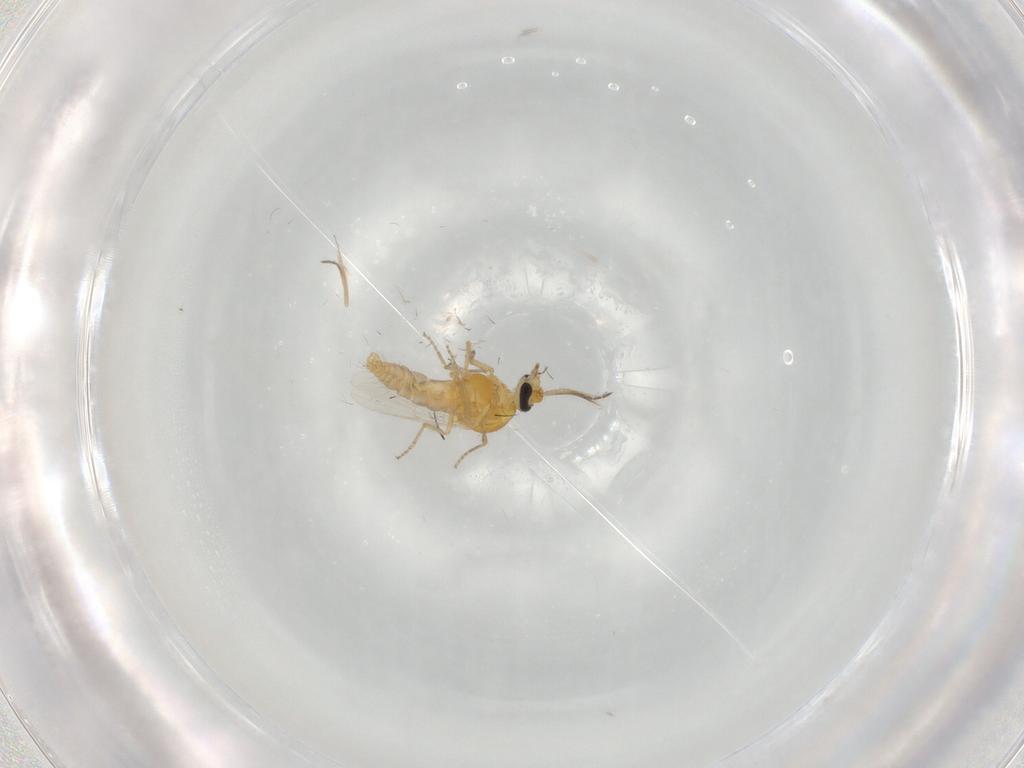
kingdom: Animalia
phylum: Arthropoda
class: Insecta
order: Diptera
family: Ceratopogonidae
